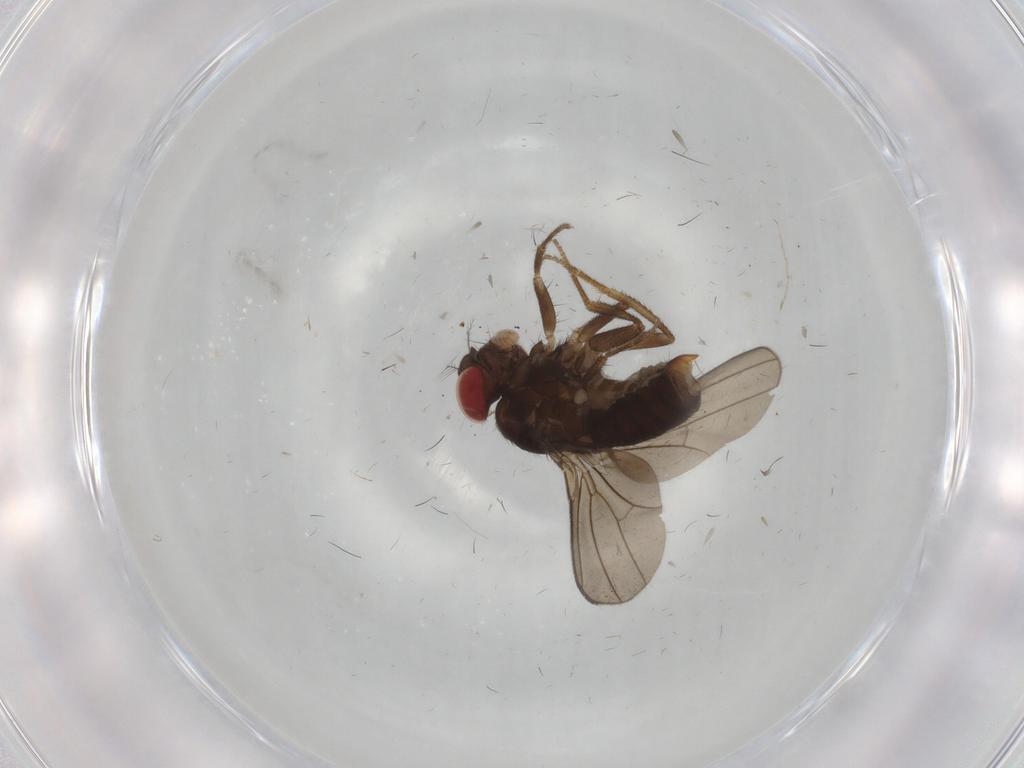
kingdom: Animalia
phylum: Arthropoda
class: Insecta
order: Diptera
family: Drosophilidae
